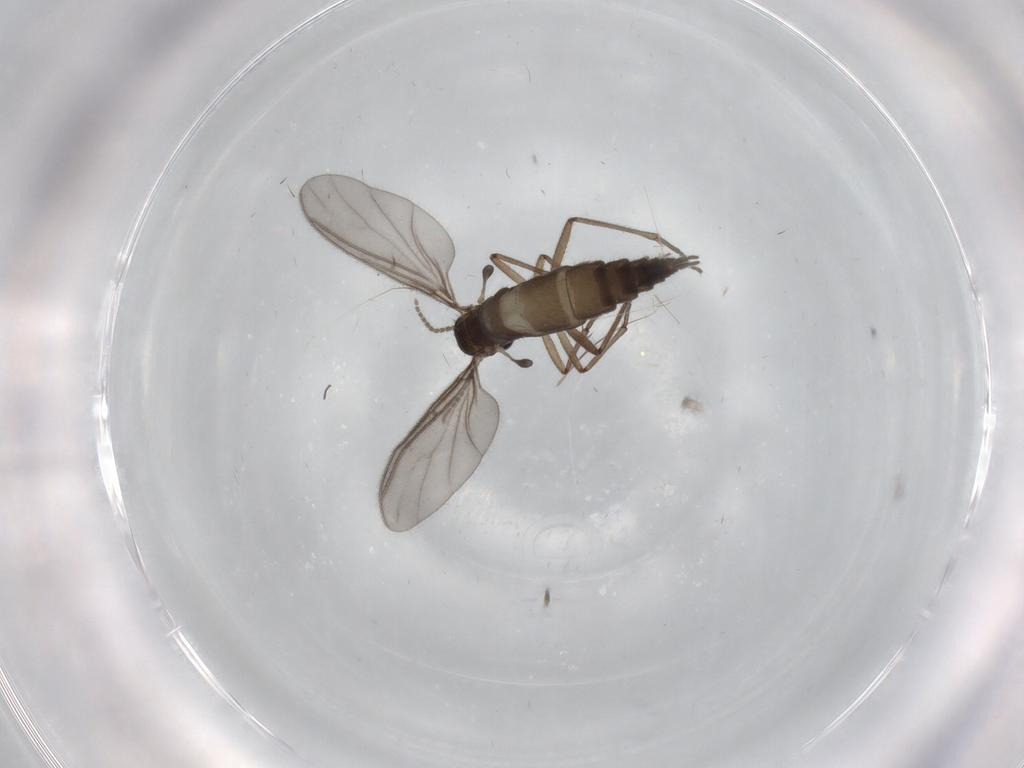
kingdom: Animalia
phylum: Arthropoda
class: Insecta
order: Diptera
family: Sciaridae
